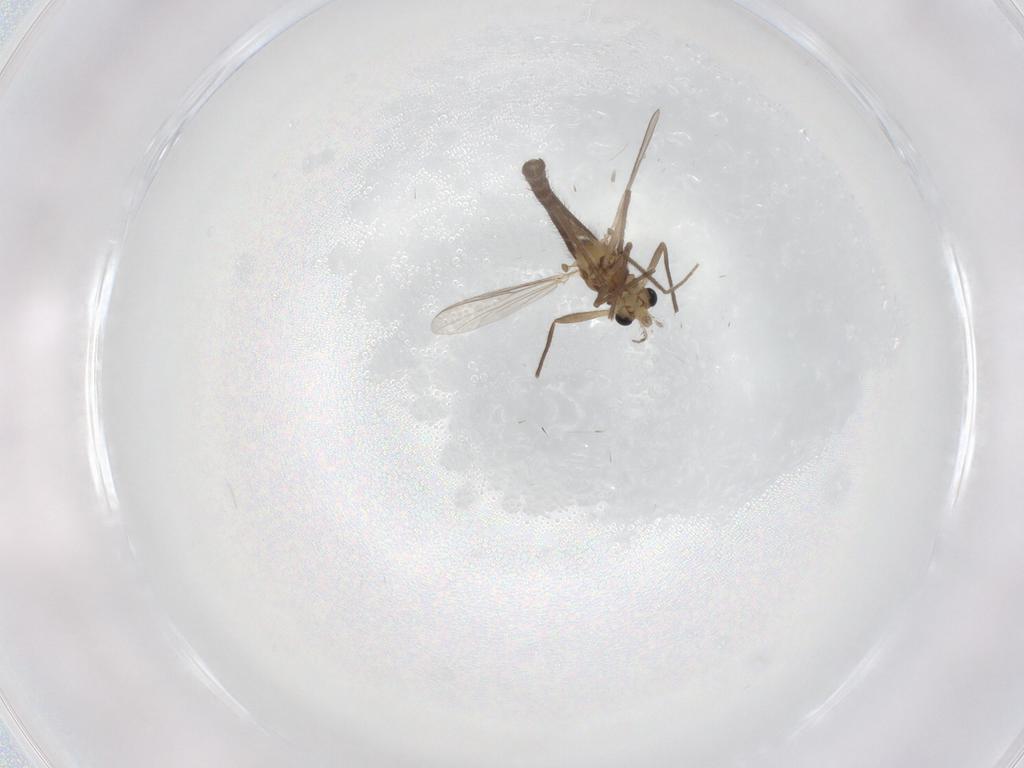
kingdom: Animalia
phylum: Arthropoda
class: Insecta
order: Diptera
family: Chironomidae
